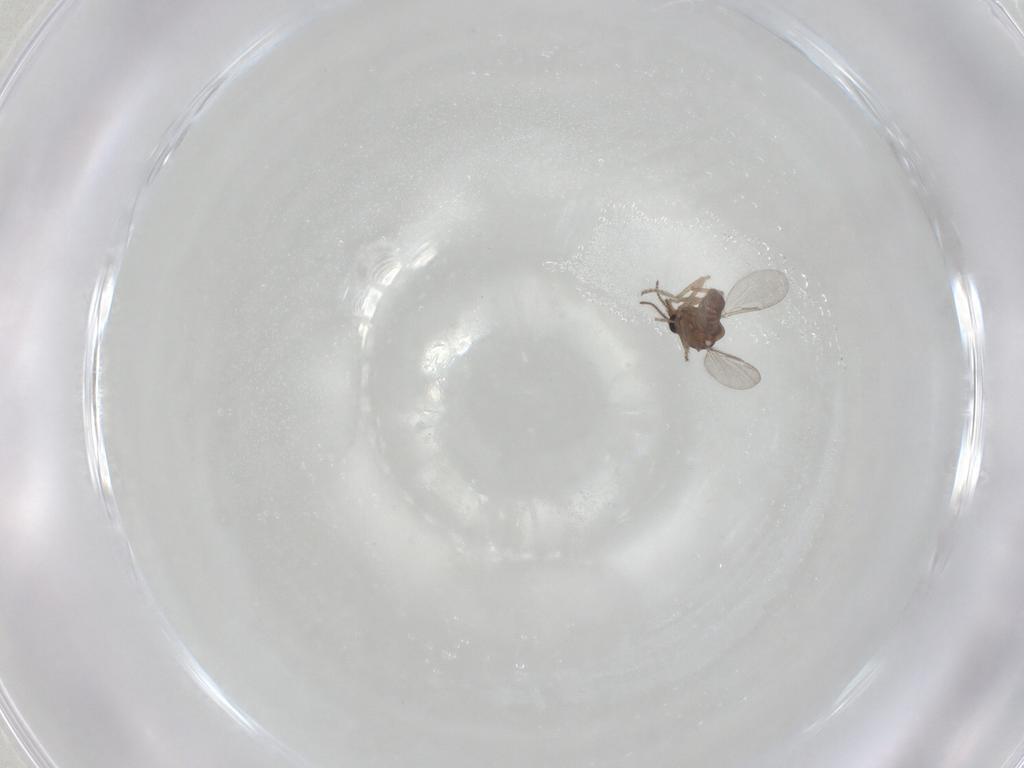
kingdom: Animalia
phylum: Arthropoda
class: Insecta
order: Diptera
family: Ceratopogonidae
